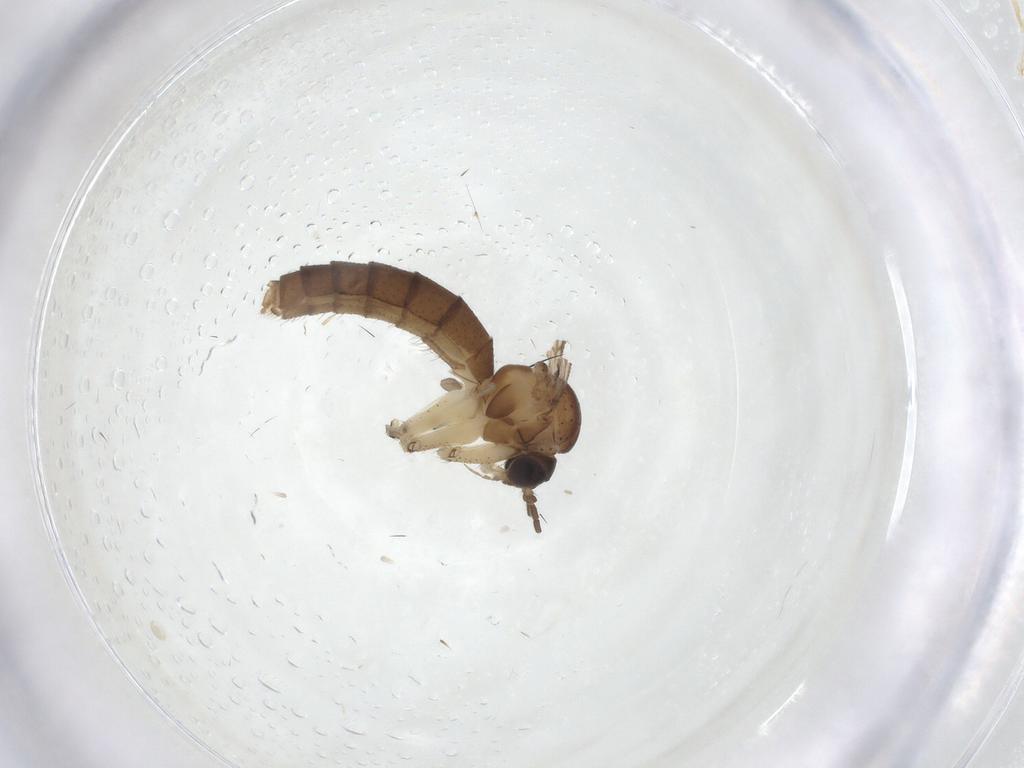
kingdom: Animalia
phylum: Arthropoda
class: Insecta
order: Diptera
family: Mycetophilidae
